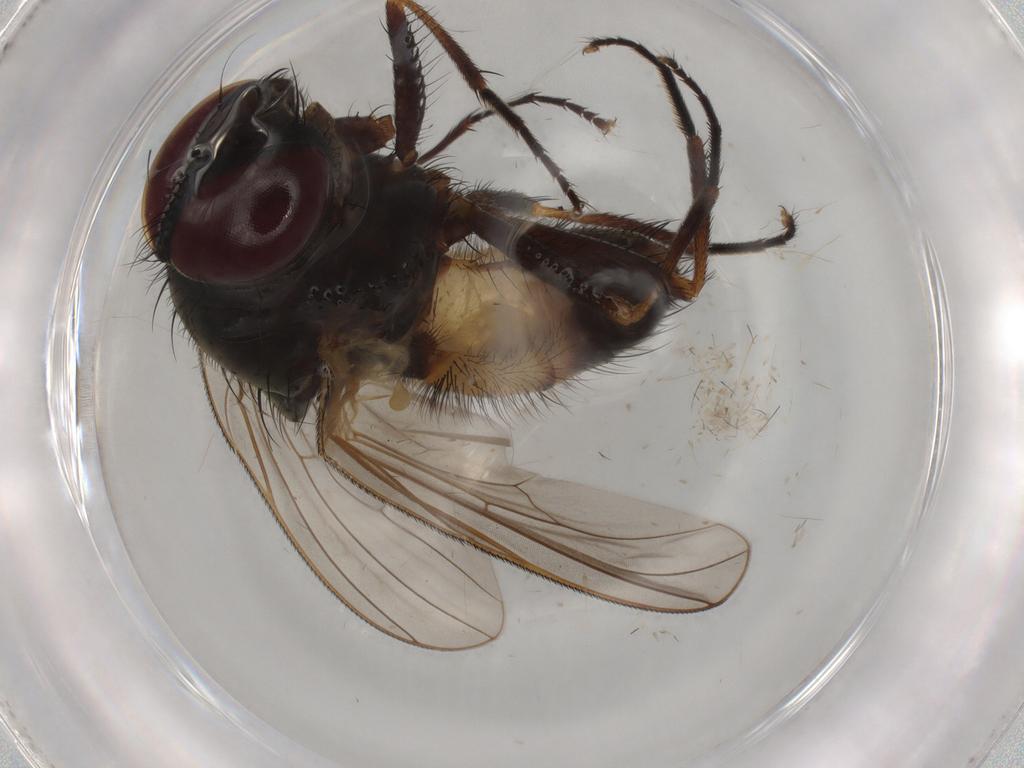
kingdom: Animalia
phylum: Arthropoda
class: Insecta
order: Diptera
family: Fannia
